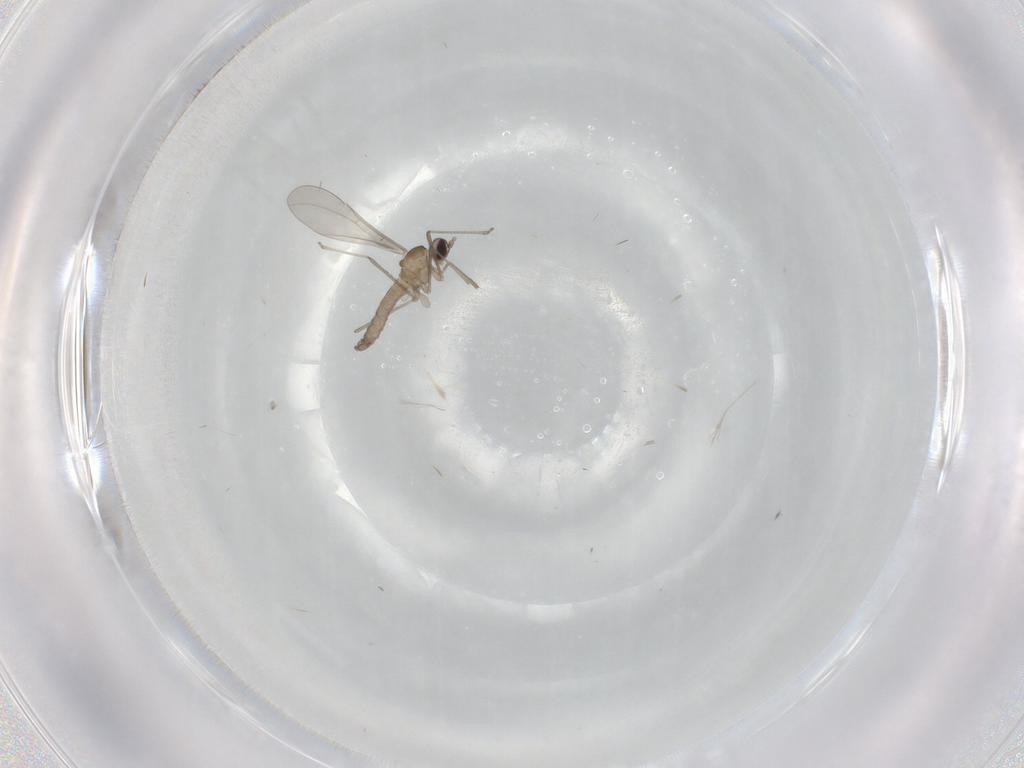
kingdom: Animalia
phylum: Arthropoda
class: Insecta
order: Diptera
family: Cecidomyiidae
